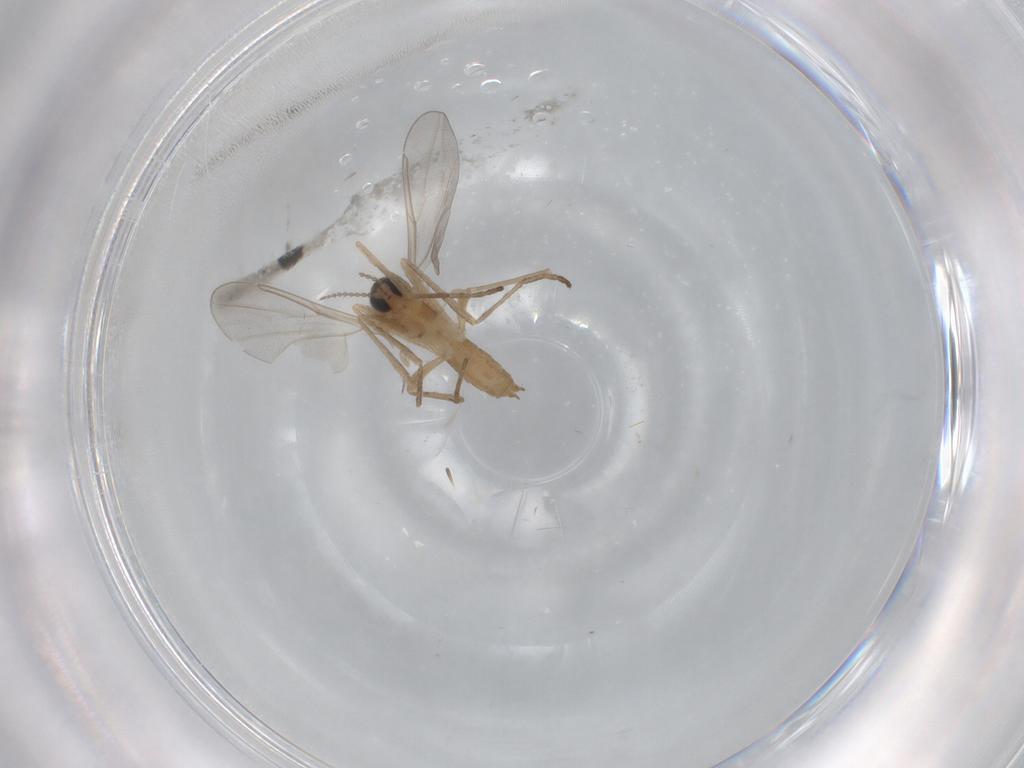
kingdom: Animalia
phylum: Arthropoda
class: Insecta
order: Diptera
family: Cecidomyiidae
